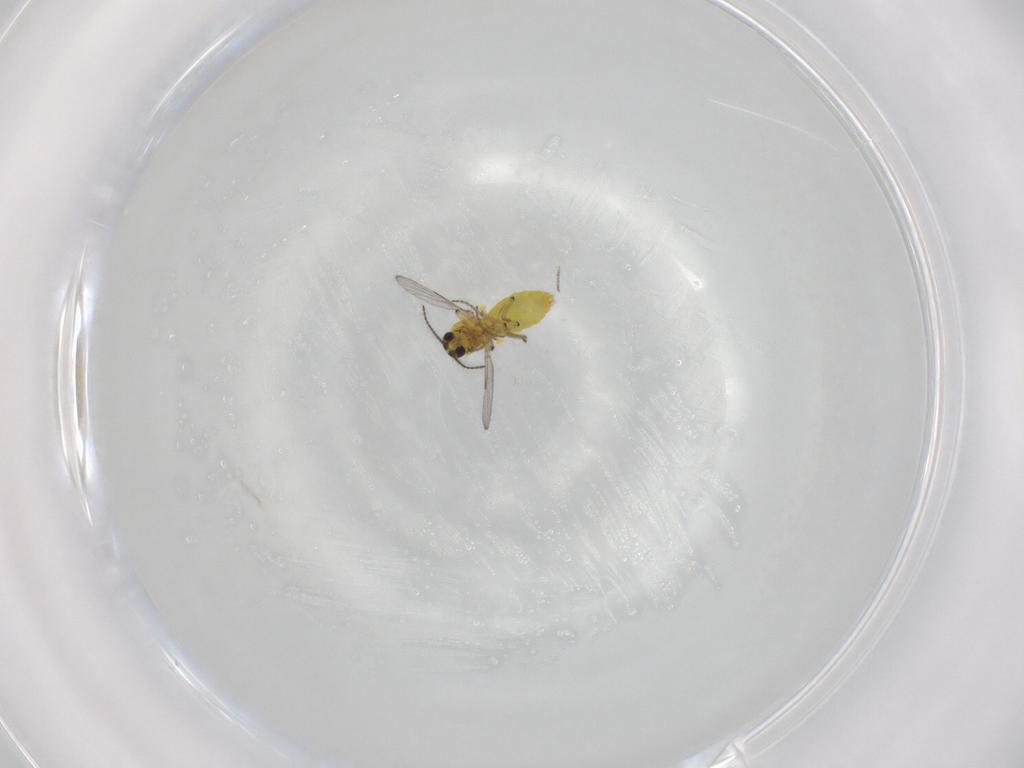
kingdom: Animalia
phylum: Arthropoda
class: Insecta
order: Diptera
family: Ceratopogonidae
